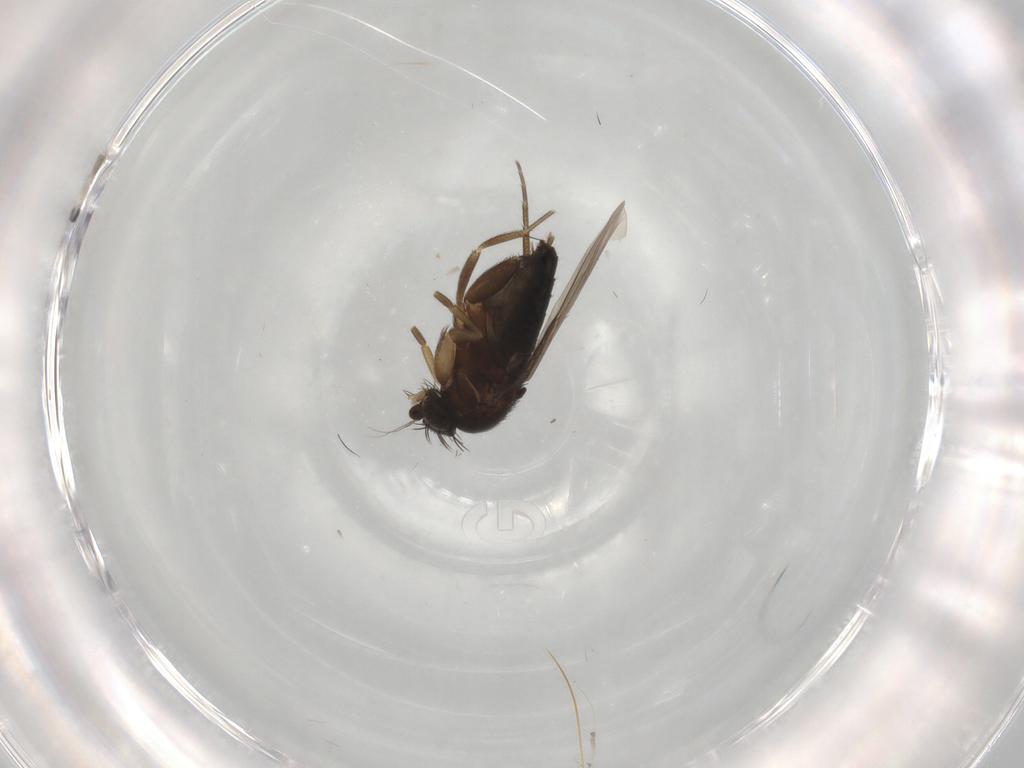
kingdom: Animalia
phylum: Arthropoda
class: Insecta
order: Diptera
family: Phoridae
